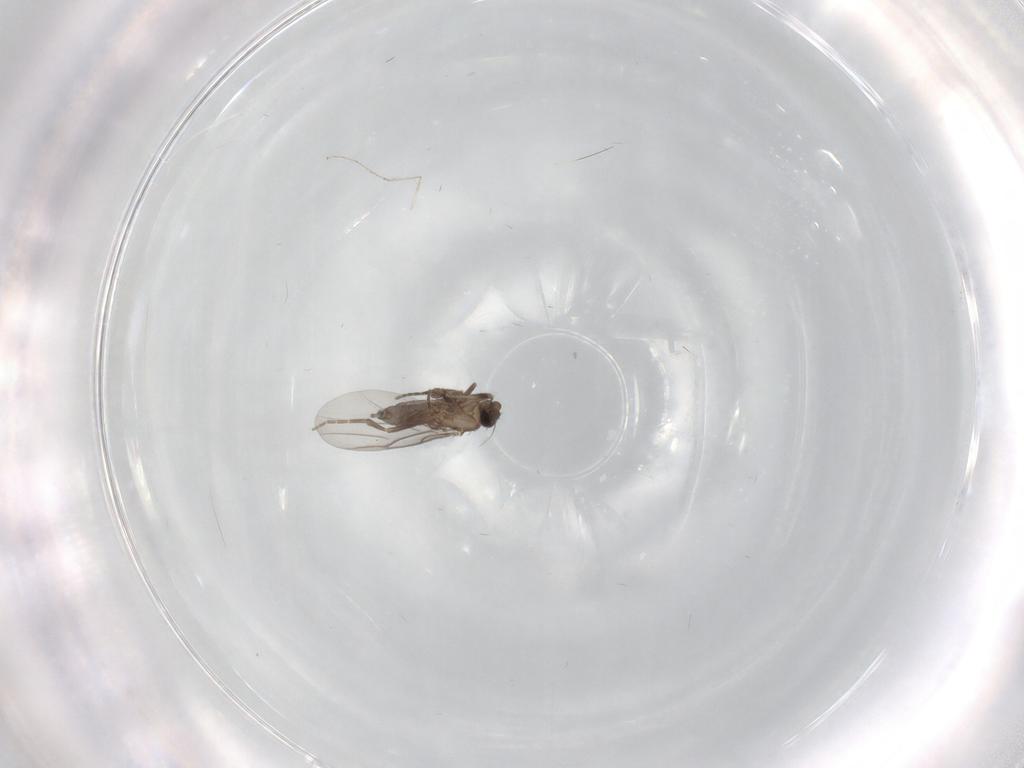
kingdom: Animalia
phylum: Arthropoda
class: Insecta
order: Diptera
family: Phoridae
